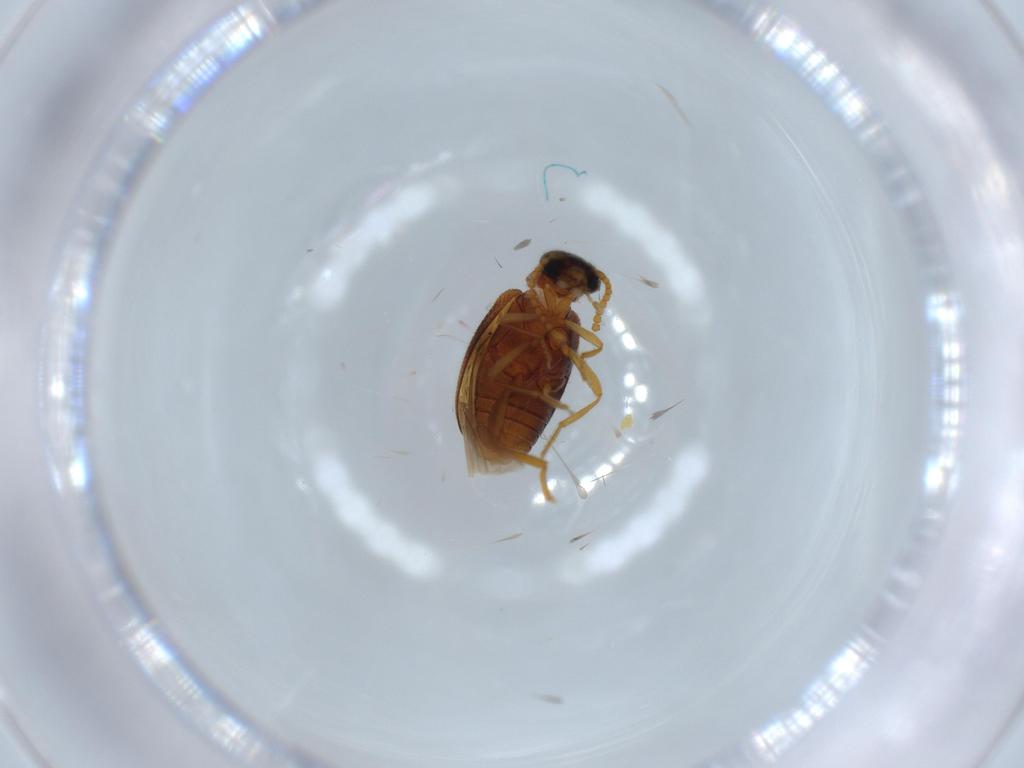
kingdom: Animalia
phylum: Arthropoda
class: Insecta
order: Coleoptera
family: Aderidae
